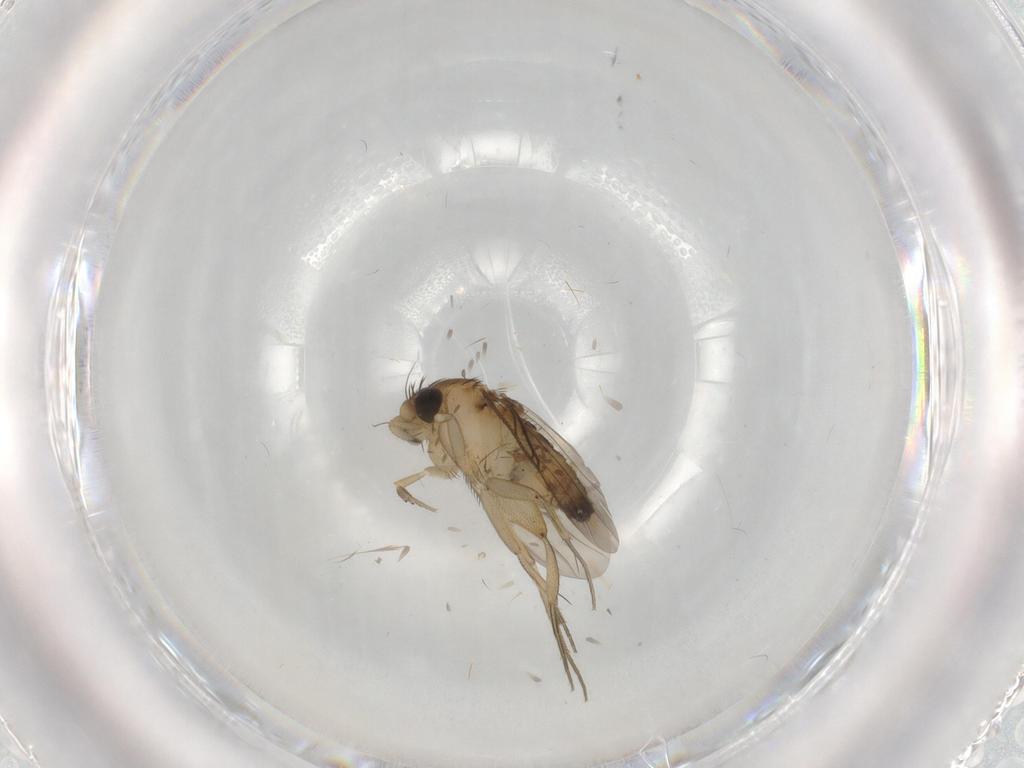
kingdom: Animalia
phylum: Arthropoda
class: Insecta
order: Diptera
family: Phoridae
